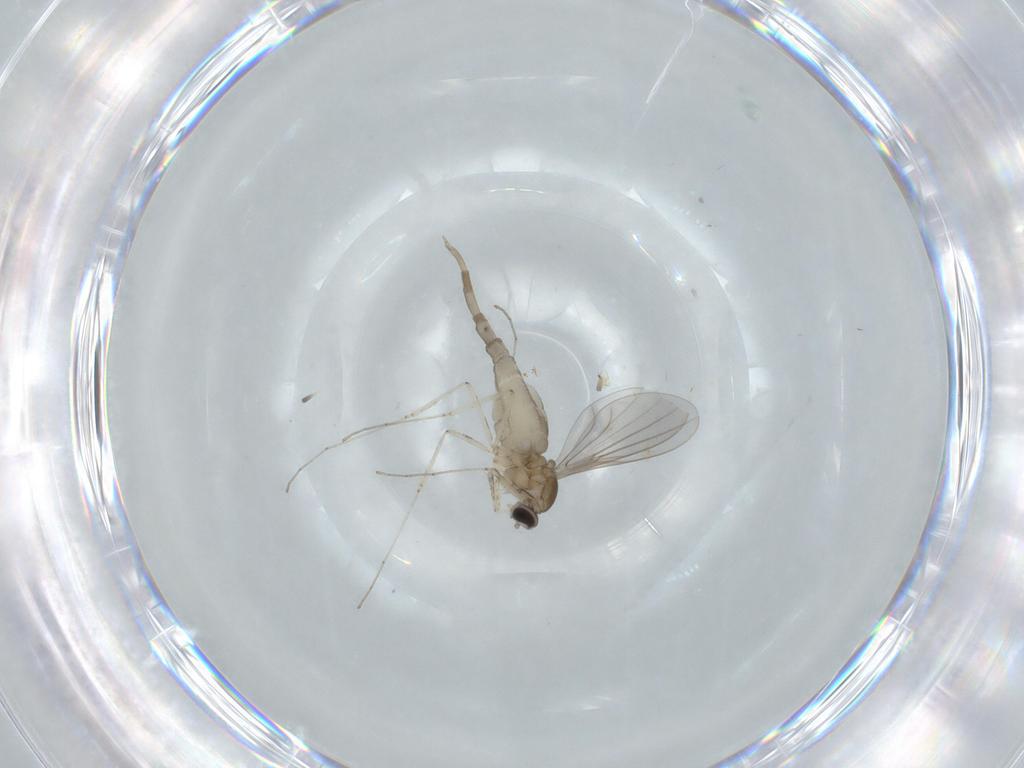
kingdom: Animalia
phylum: Arthropoda
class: Insecta
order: Diptera
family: Cecidomyiidae
